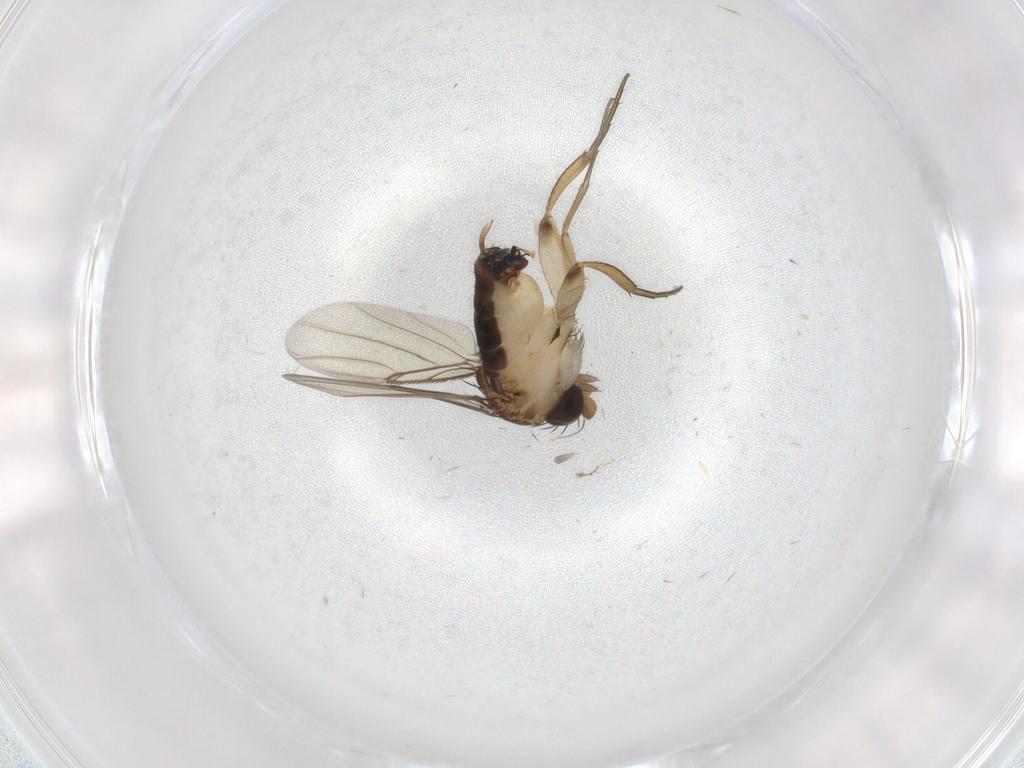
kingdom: Animalia
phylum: Arthropoda
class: Insecta
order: Diptera
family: Phoridae
